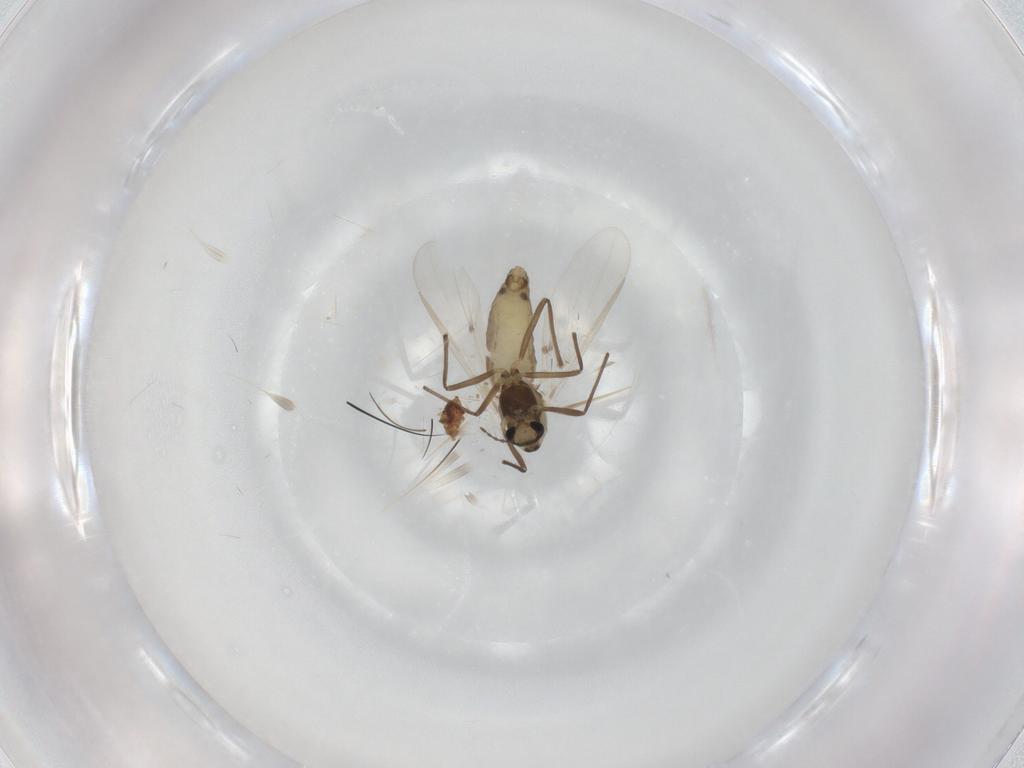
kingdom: Animalia
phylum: Arthropoda
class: Insecta
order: Diptera
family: Chironomidae
